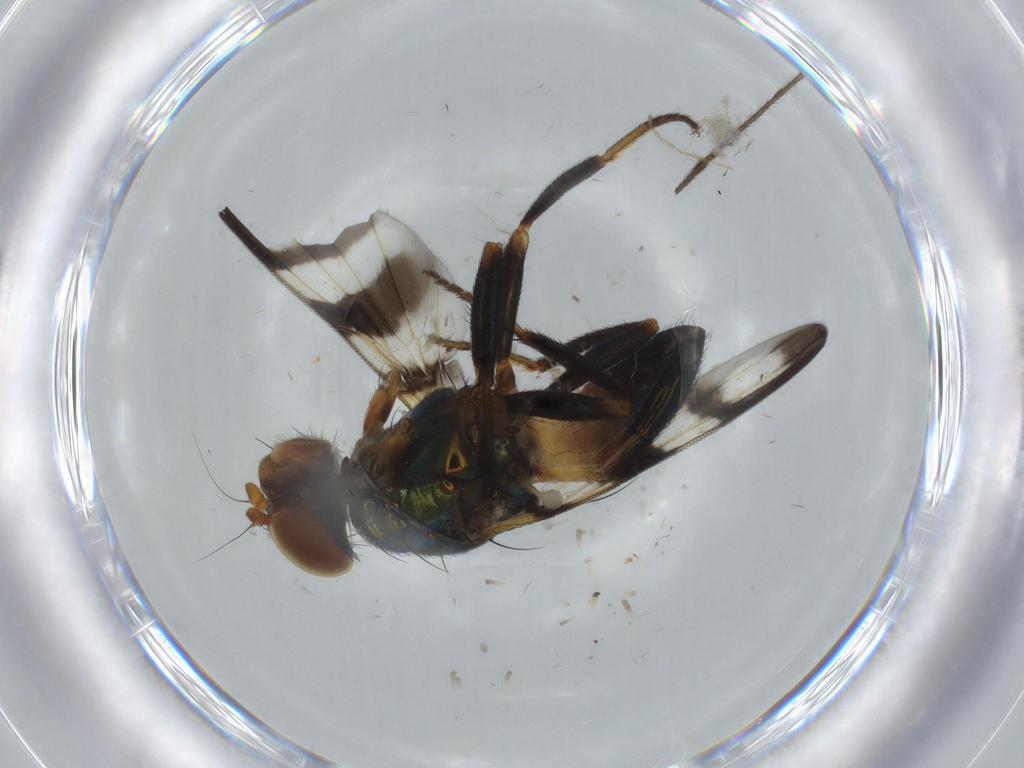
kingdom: Animalia
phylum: Arthropoda
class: Insecta
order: Diptera
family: Ulidiidae
